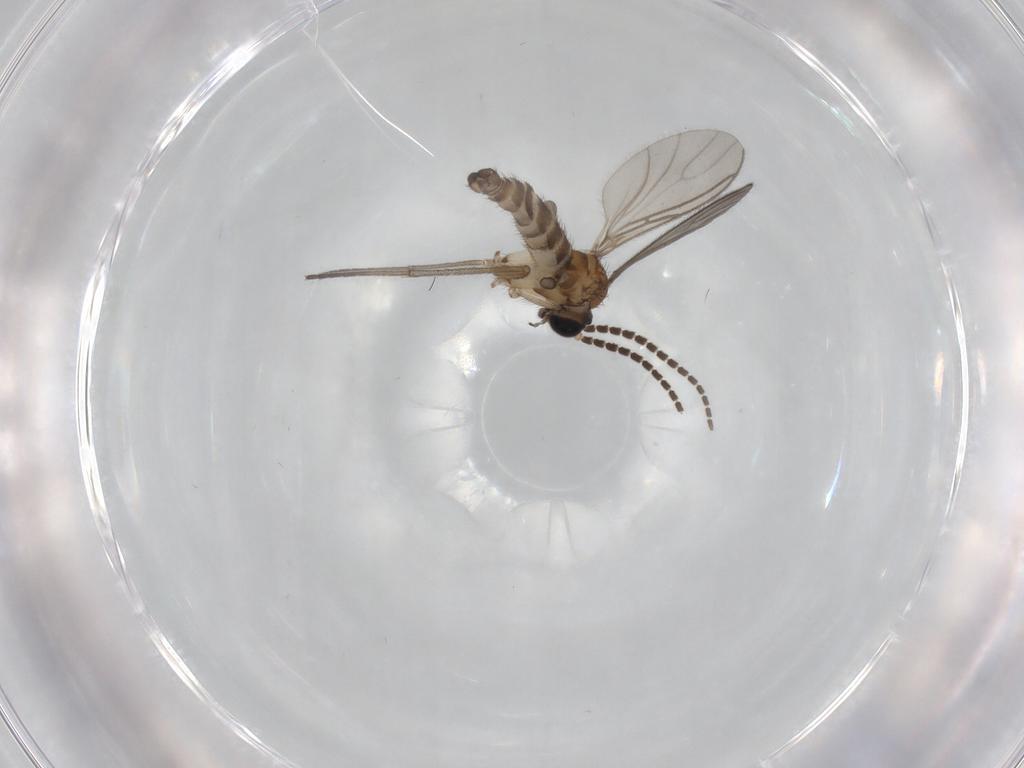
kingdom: Animalia
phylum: Arthropoda
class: Insecta
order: Diptera
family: Sciaridae
